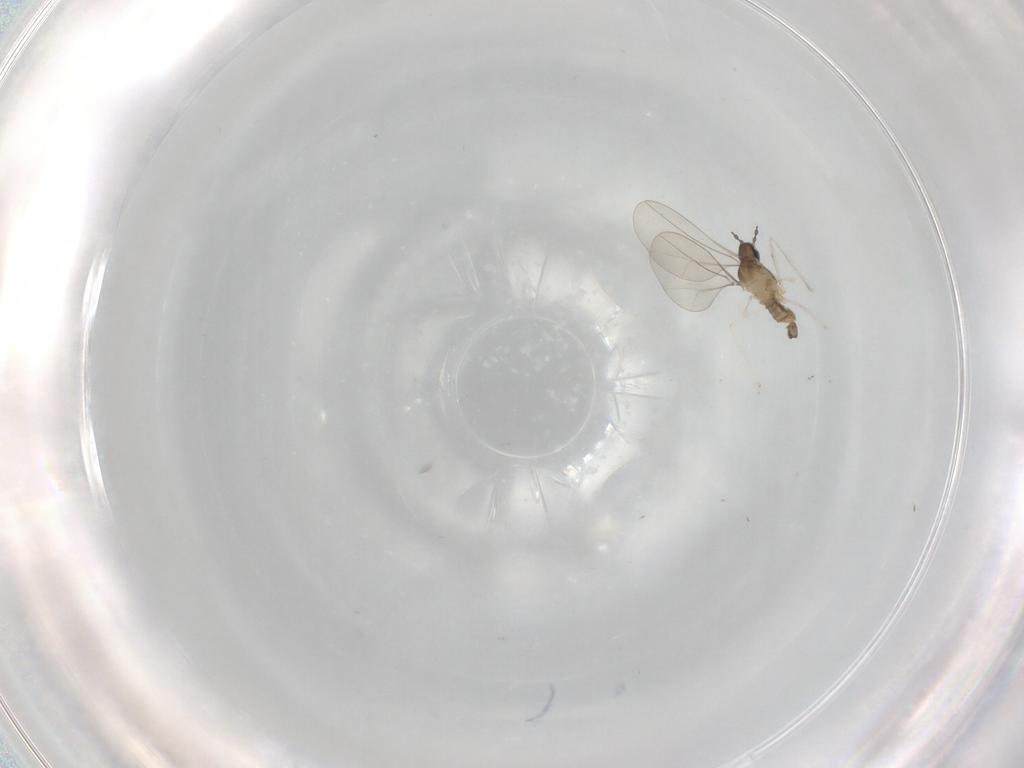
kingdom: Animalia
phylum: Arthropoda
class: Insecta
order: Diptera
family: Cecidomyiidae
